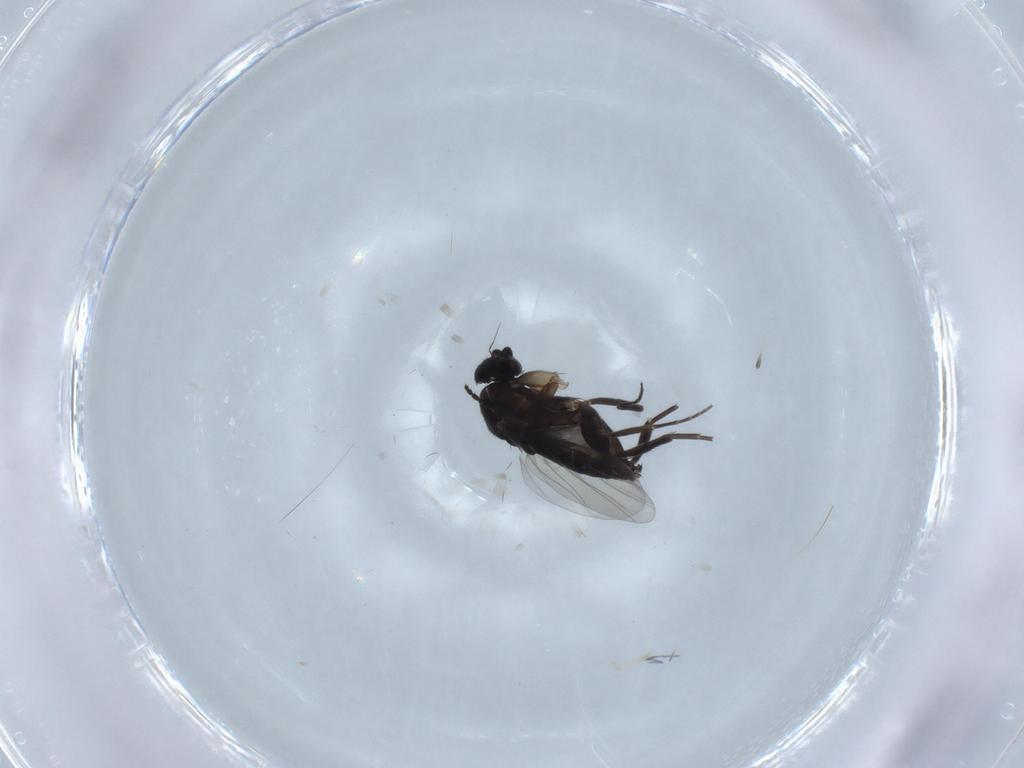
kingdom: Animalia
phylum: Arthropoda
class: Insecta
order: Diptera
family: Phoridae
